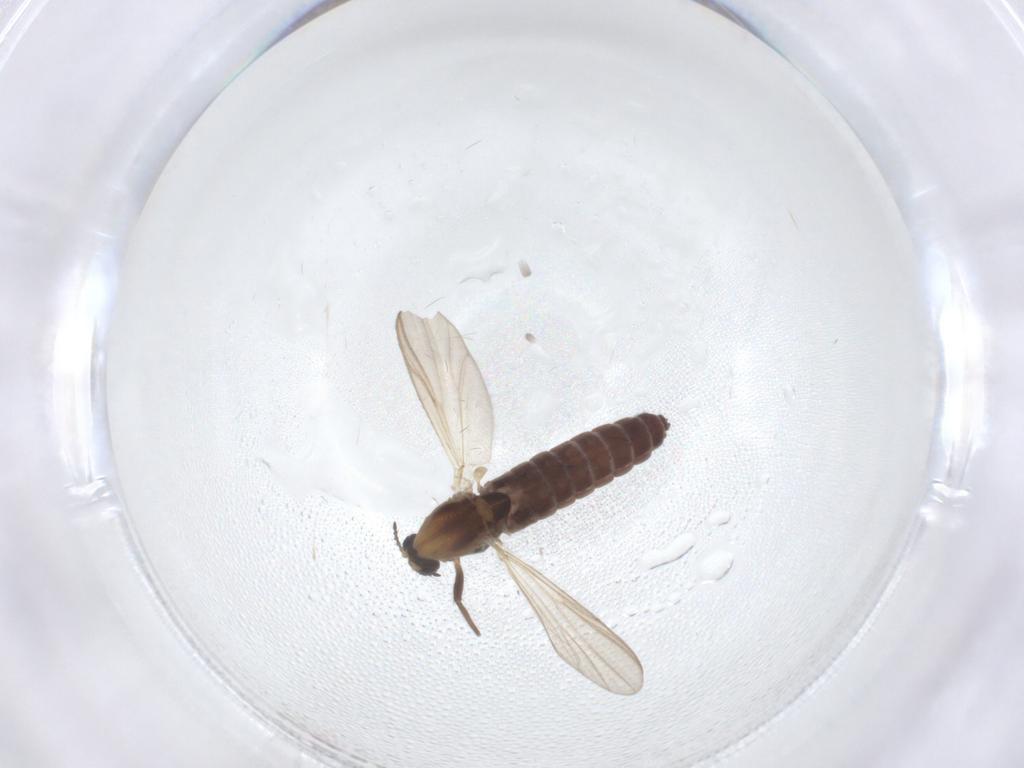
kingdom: Animalia
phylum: Arthropoda
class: Insecta
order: Diptera
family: Chironomidae
